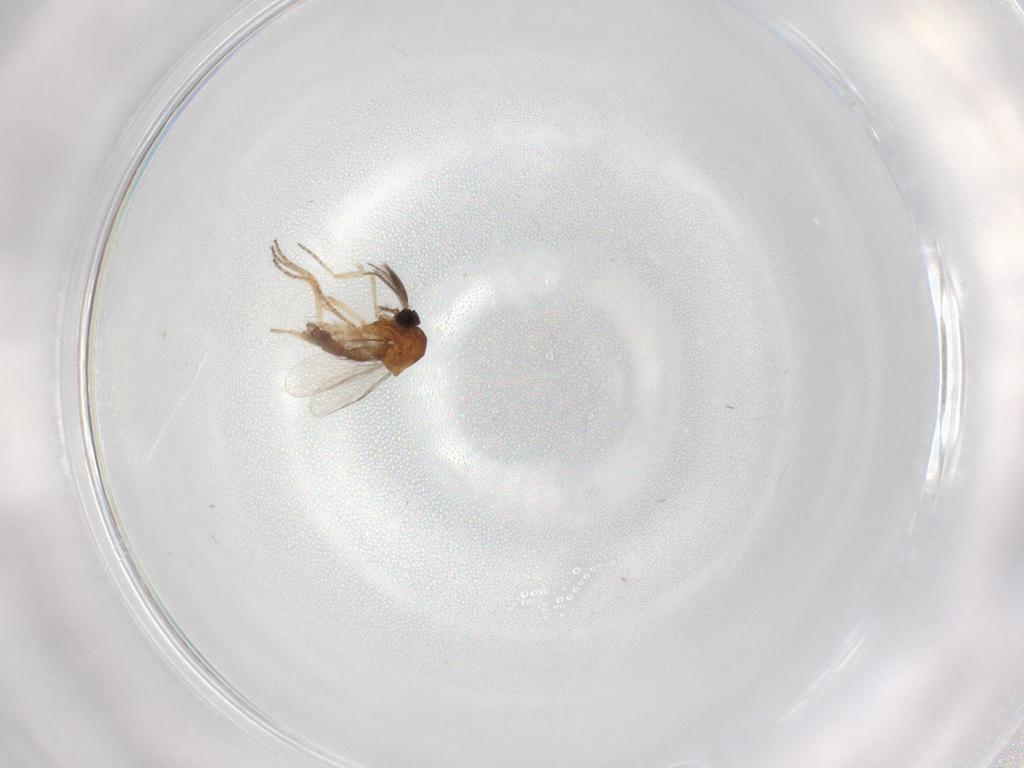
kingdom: Animalia
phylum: Arthropoda
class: Insecta
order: Diptera
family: Ceratopogonidae
